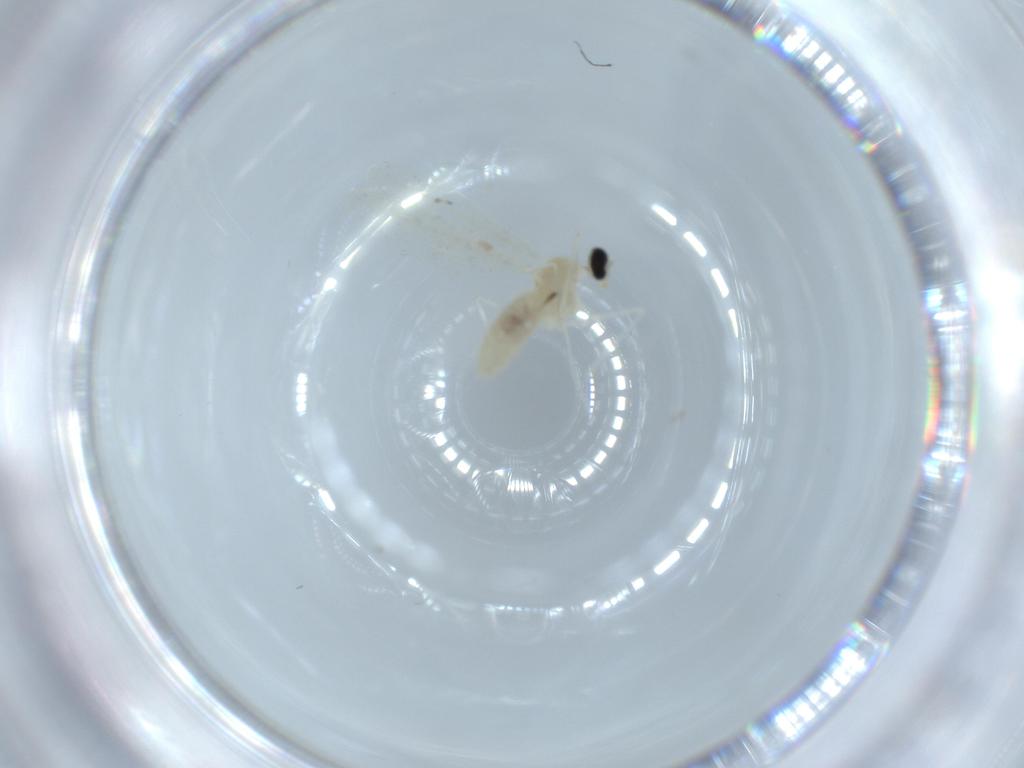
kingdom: Animalia
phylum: Arthropoda
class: Insecta
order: Diptera
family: Cecidomyiidae
